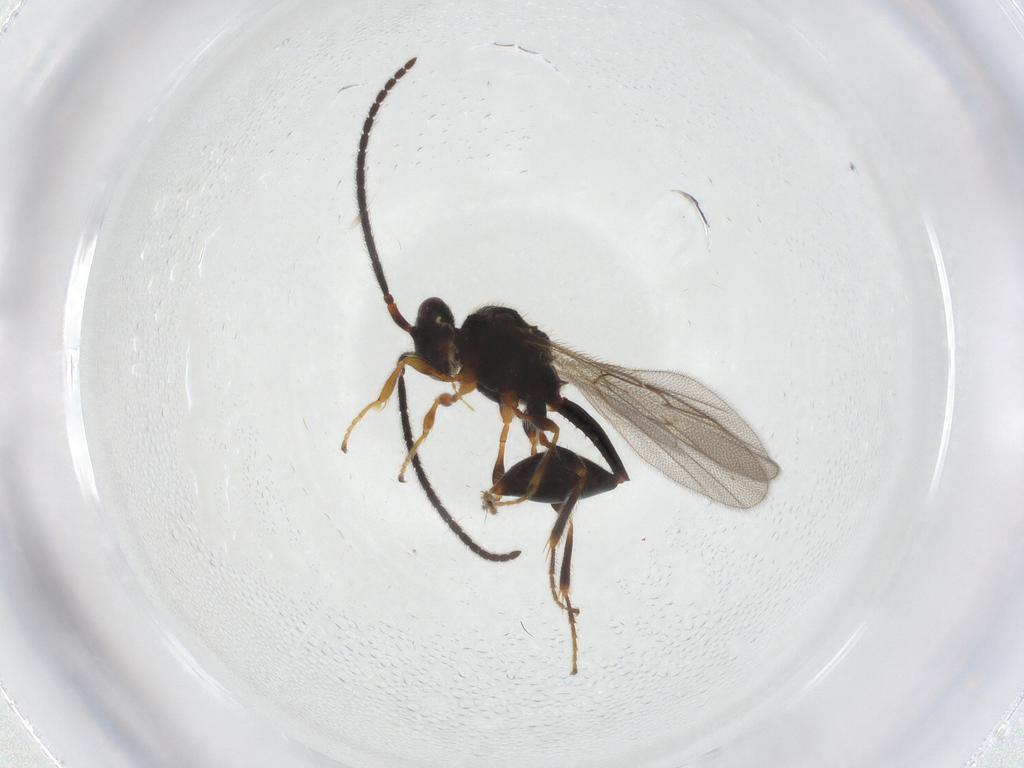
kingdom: Animalia
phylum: Arthropoda
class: Insecta
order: Hymenoptera
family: Diapriidae
